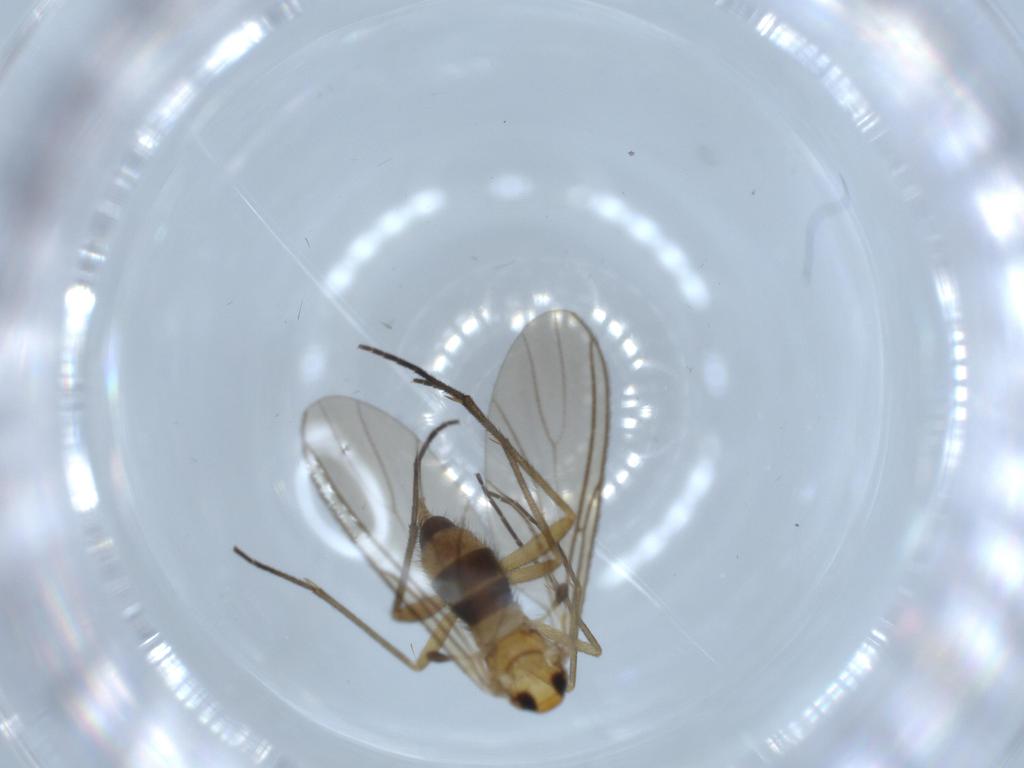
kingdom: Animalia
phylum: Arthropoda
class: Insecta
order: Diptera
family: Sciaridae
